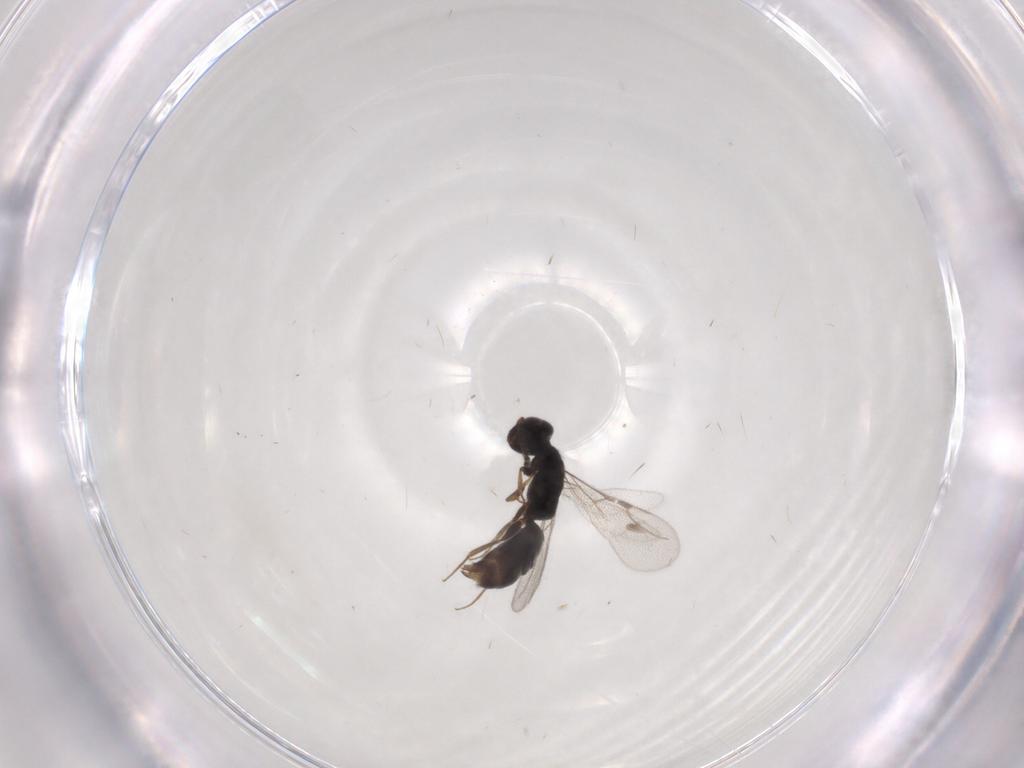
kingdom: Animalia
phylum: Arthropoda
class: Insecta
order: Hymenoptera
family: Bethylidae
